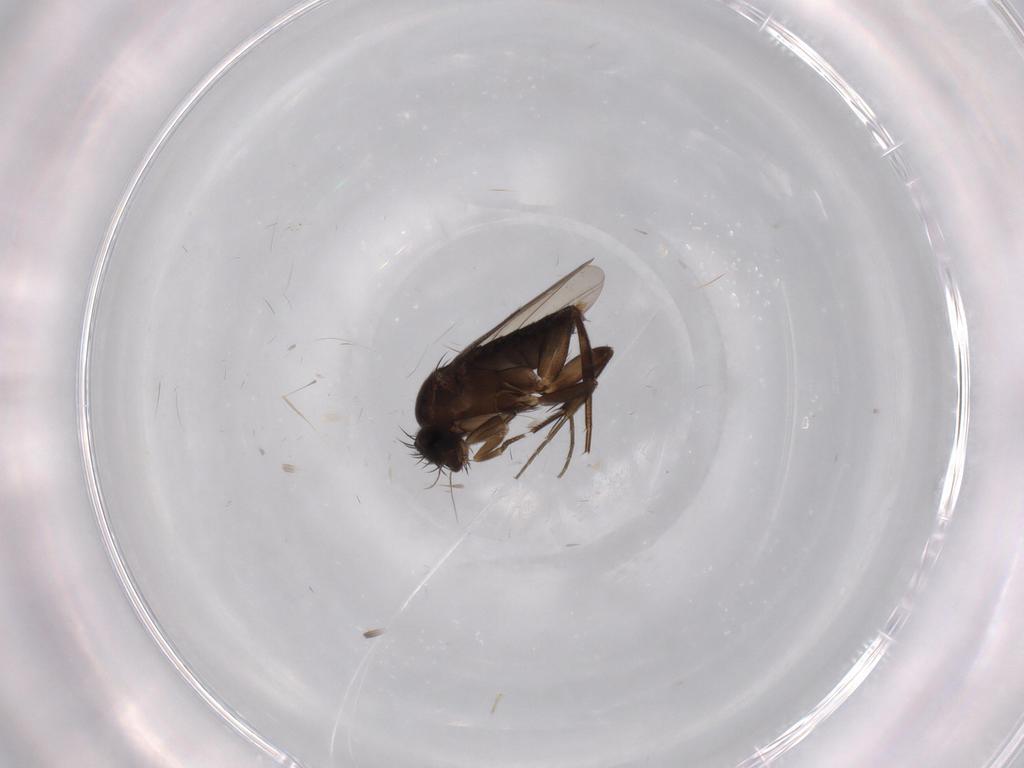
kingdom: Animalia
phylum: Arthropoda
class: Insecta
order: Diptera
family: Phoridae
